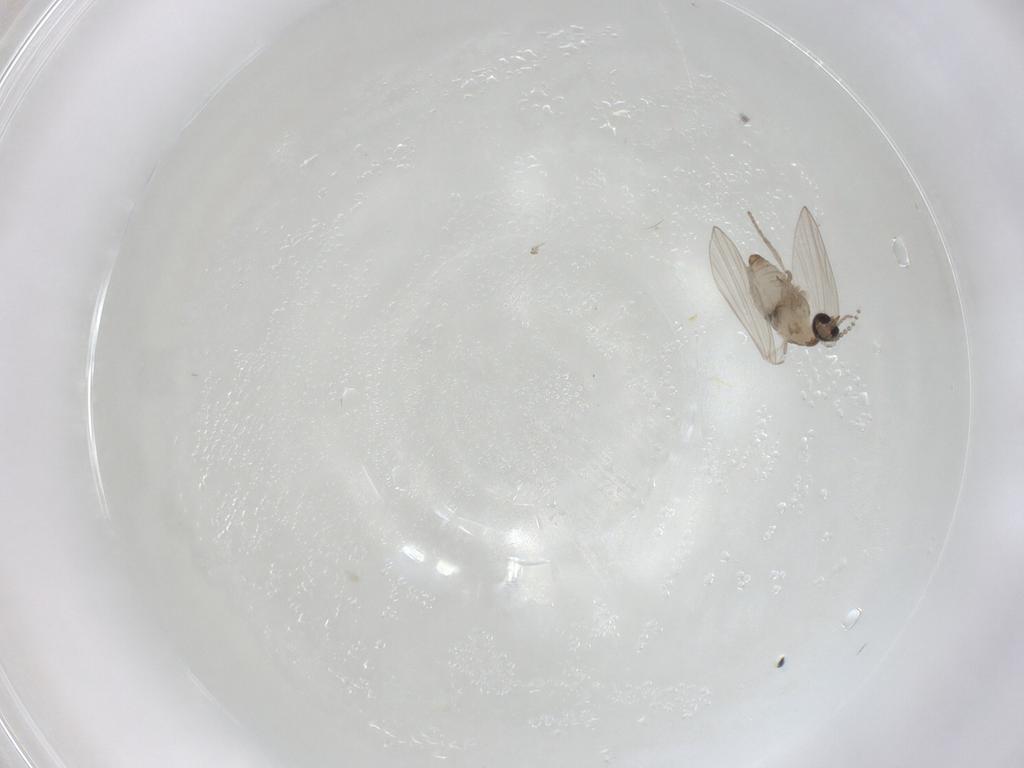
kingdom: Animalia
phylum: Arthropoda
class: Insecta
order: Diptera
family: Psychodidae
